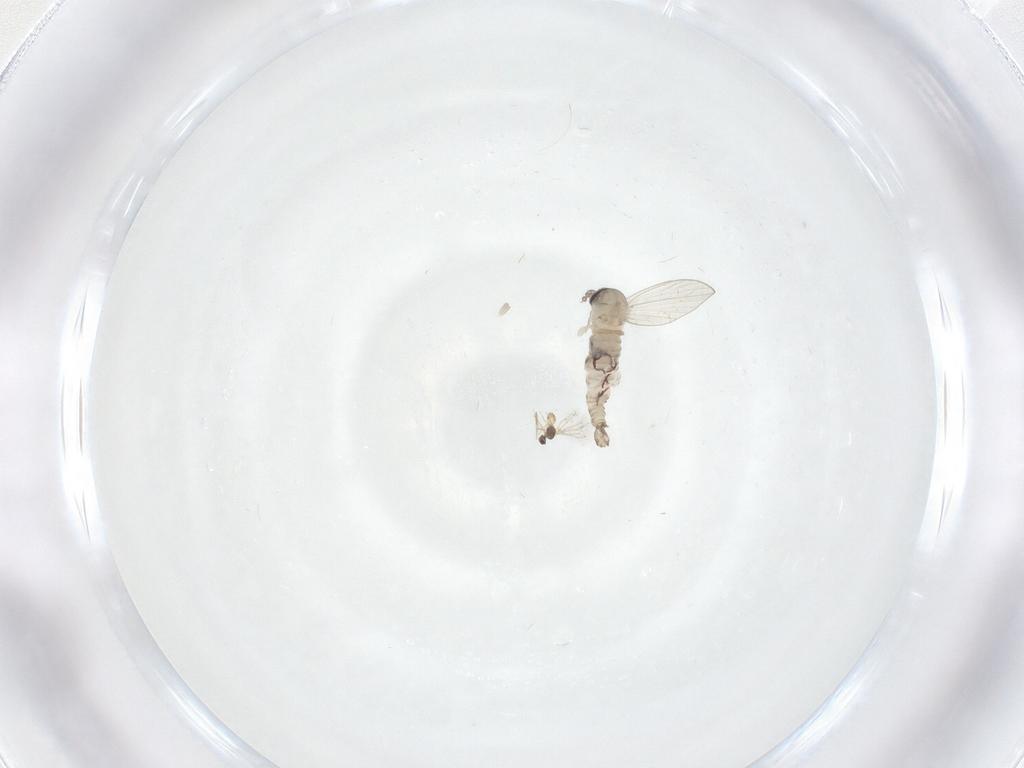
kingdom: Animalia
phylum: Arthropoda
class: Insecta
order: Diptera
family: Psychodidae
